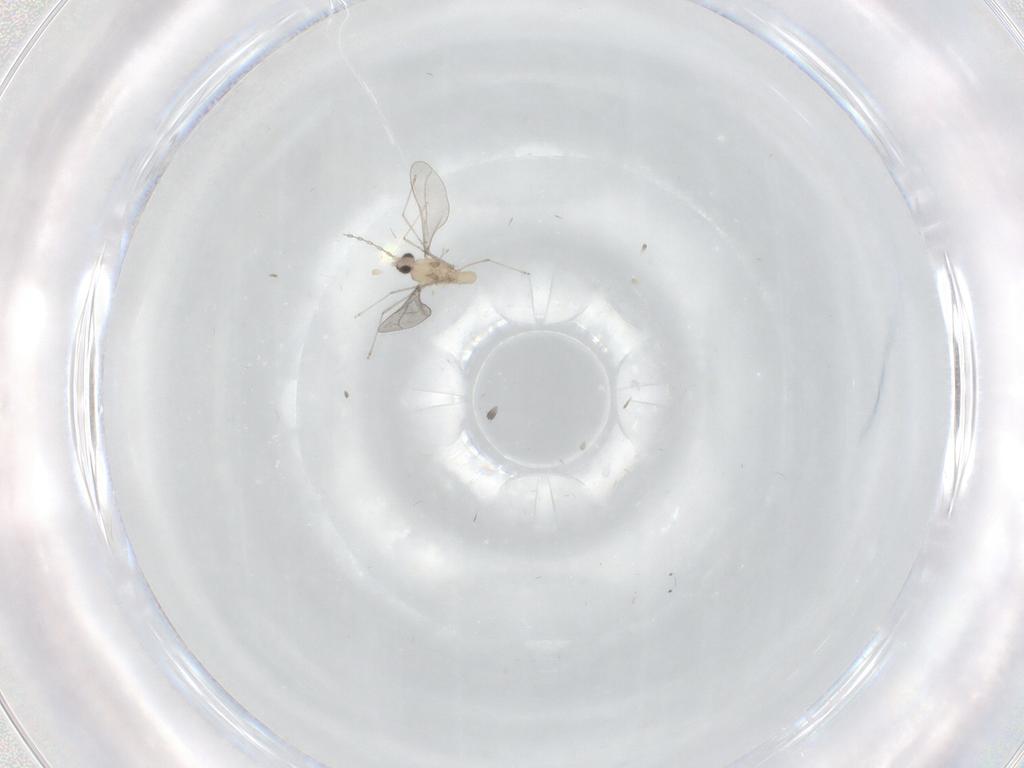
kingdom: Animalia
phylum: Arthropoda
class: Insecta
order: Diptera
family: Cecidomyiidae
